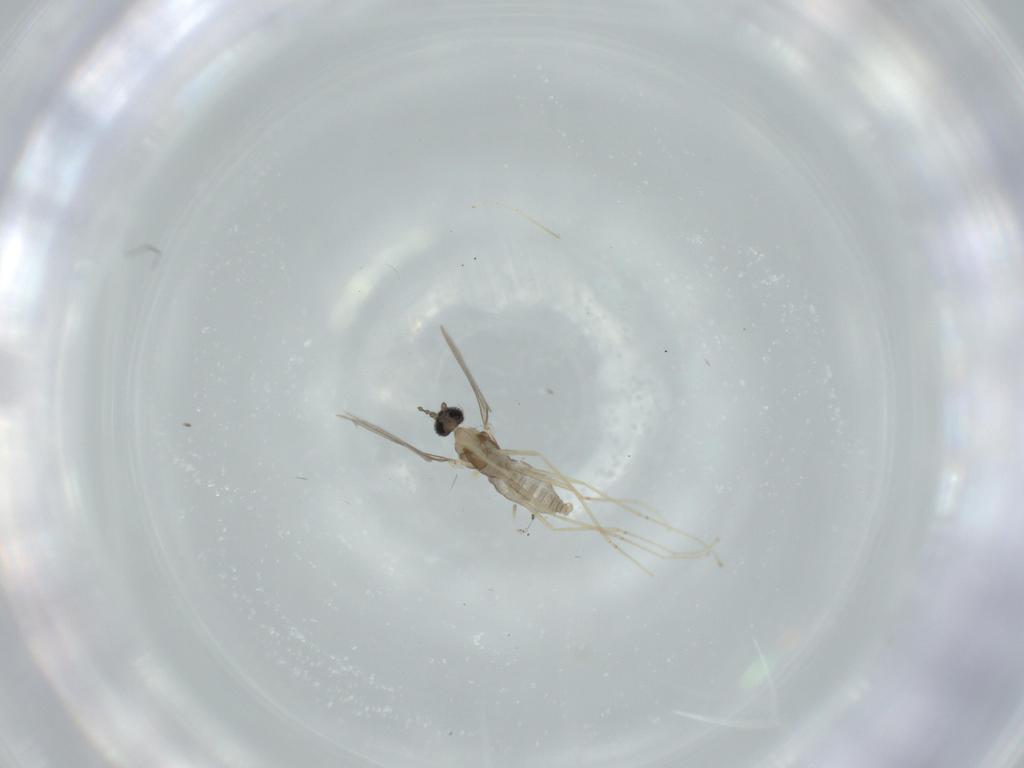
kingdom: Animalia
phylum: Arthropoda
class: Insecta
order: Diptera
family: Cecidomyiidae
